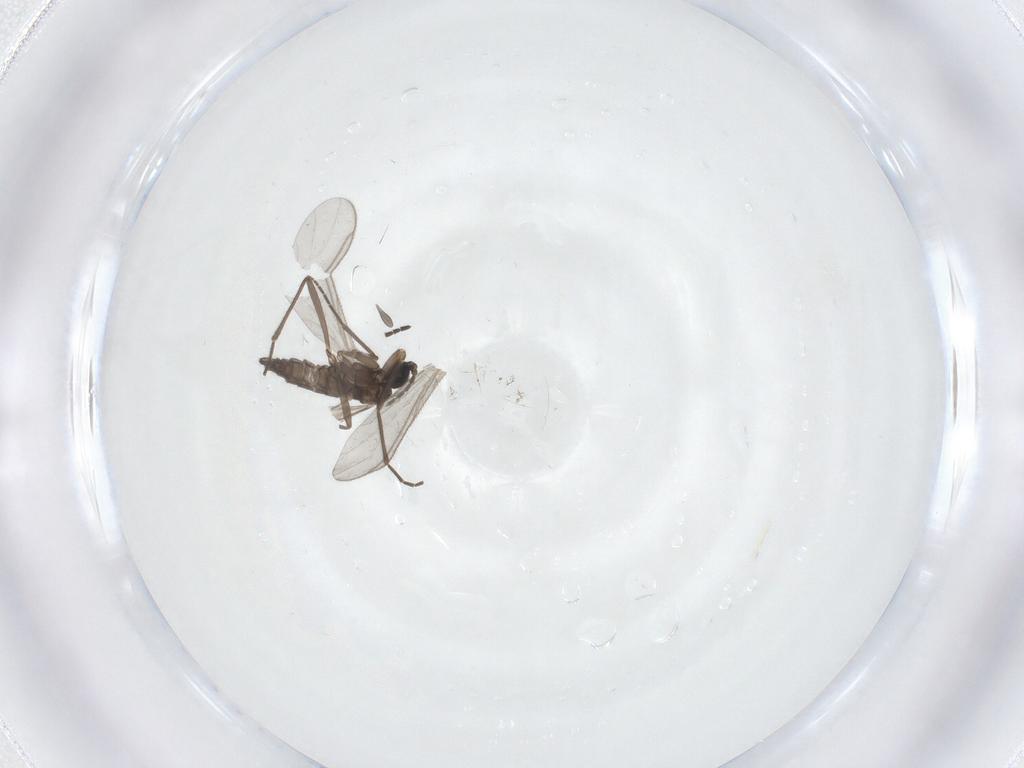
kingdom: Animalia
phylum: Arthropoda
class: Insecta
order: Diptera
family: Sciaridae
